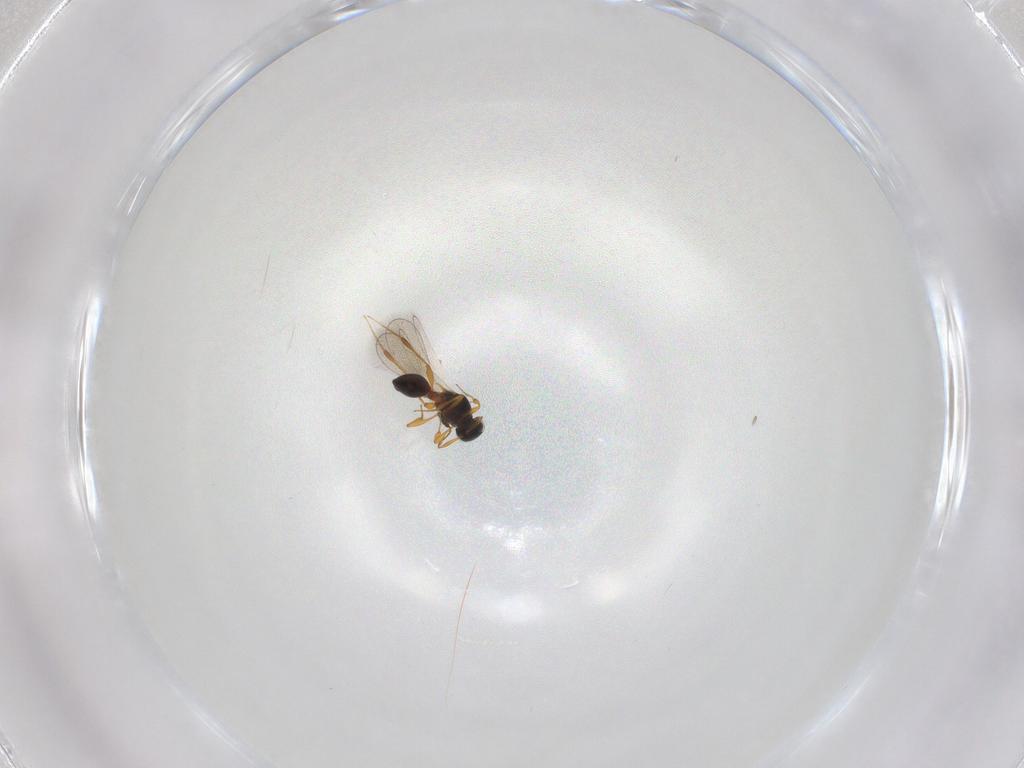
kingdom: Animalia
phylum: Arthropoda
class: Insecta
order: Hymenoptera
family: Platygastridae
